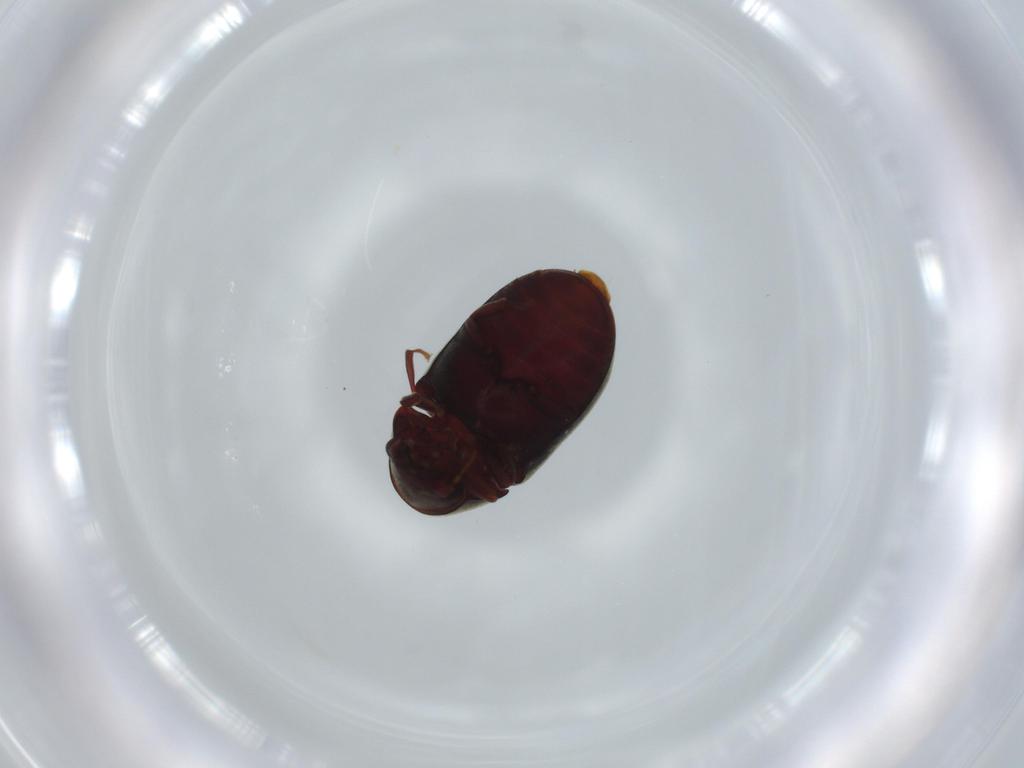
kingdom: Animalia
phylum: Arthropoda
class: Insecta
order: Coleoptera
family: Ptinidae
